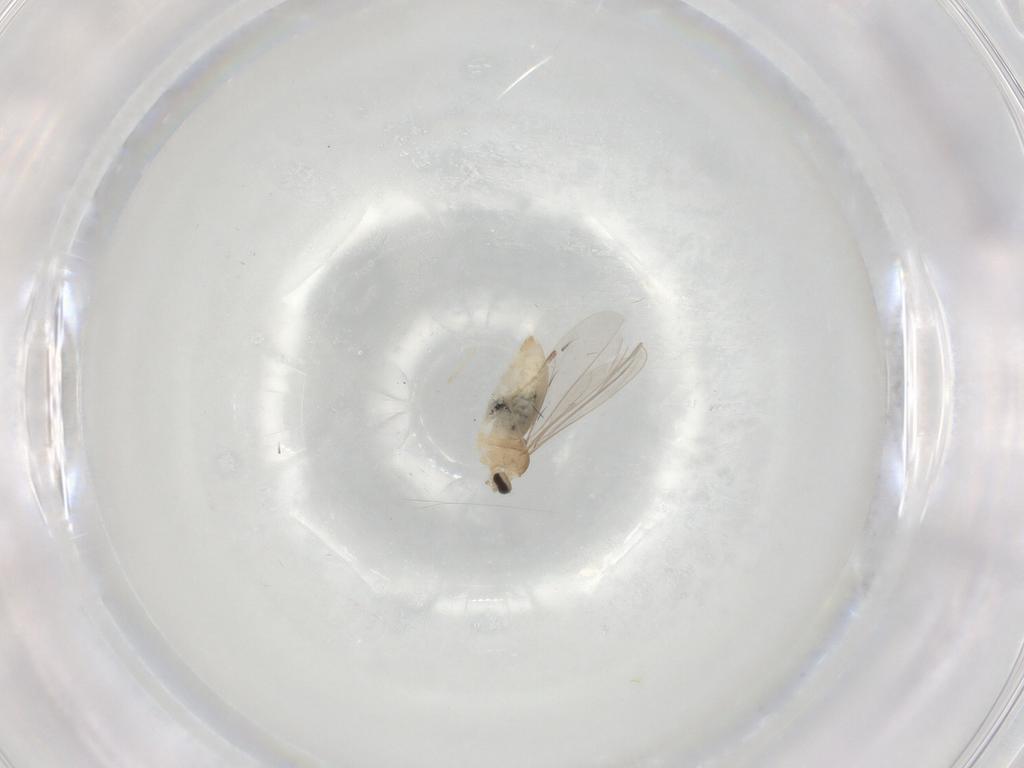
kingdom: Animalia
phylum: Arthropoda
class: Insecta
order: Diptera
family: Cecidomyiidae
